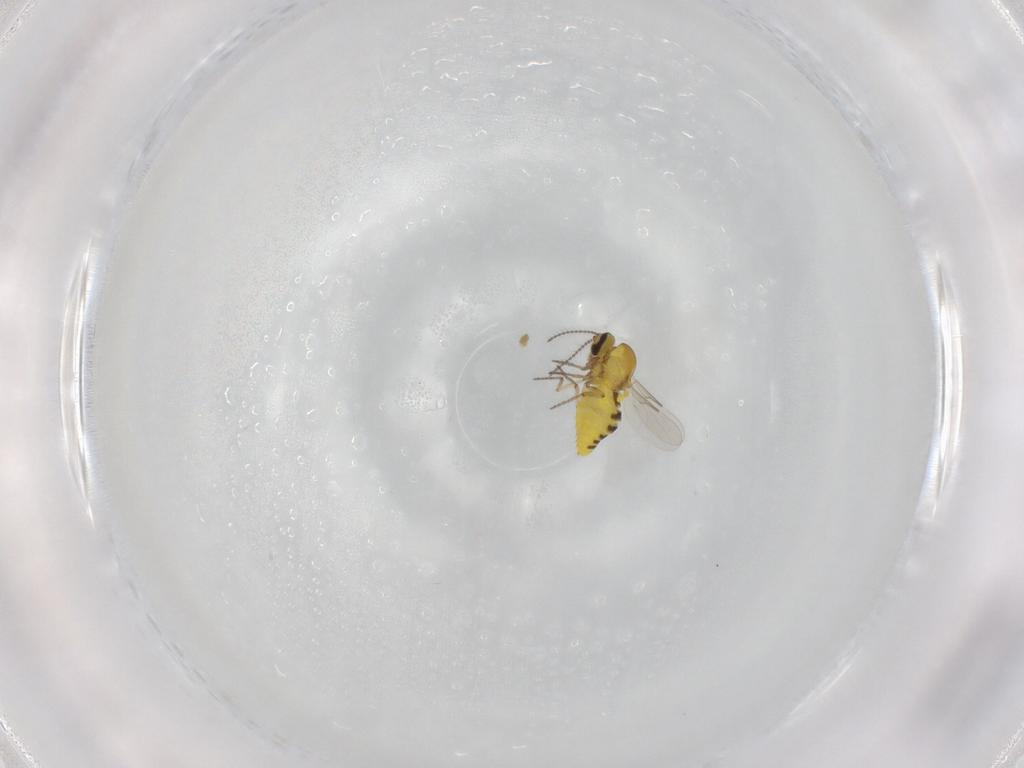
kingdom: Animalia
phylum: Arthropoda
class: Insecta
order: Diptera
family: Limoniidae
